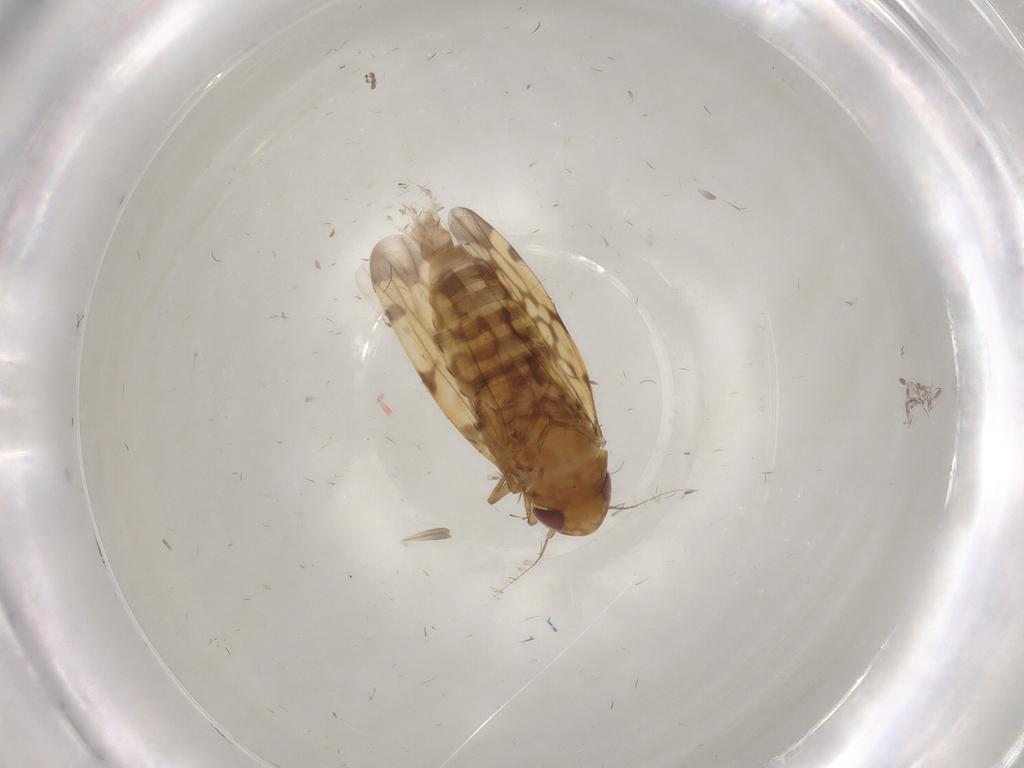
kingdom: Animalia
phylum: Arthropoda
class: Insecta
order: Hemiptera
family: Cicadellidae
